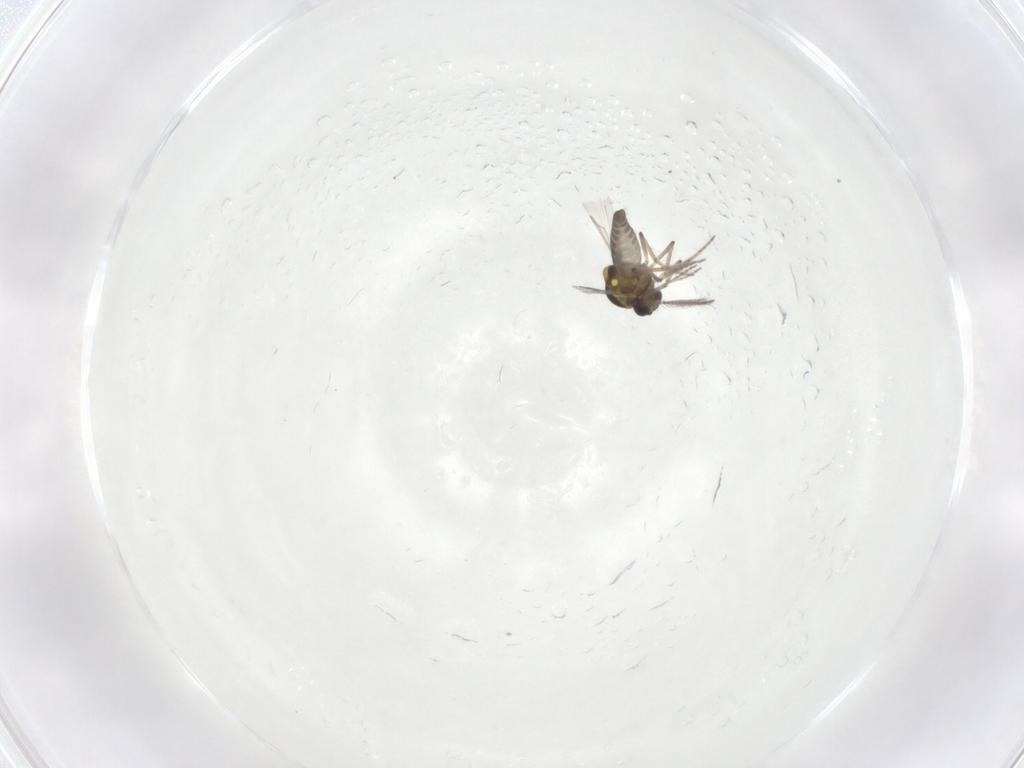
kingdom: Animalia
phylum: Arthropoda
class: Insecta
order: Diptera
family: Ceratopogonidae
